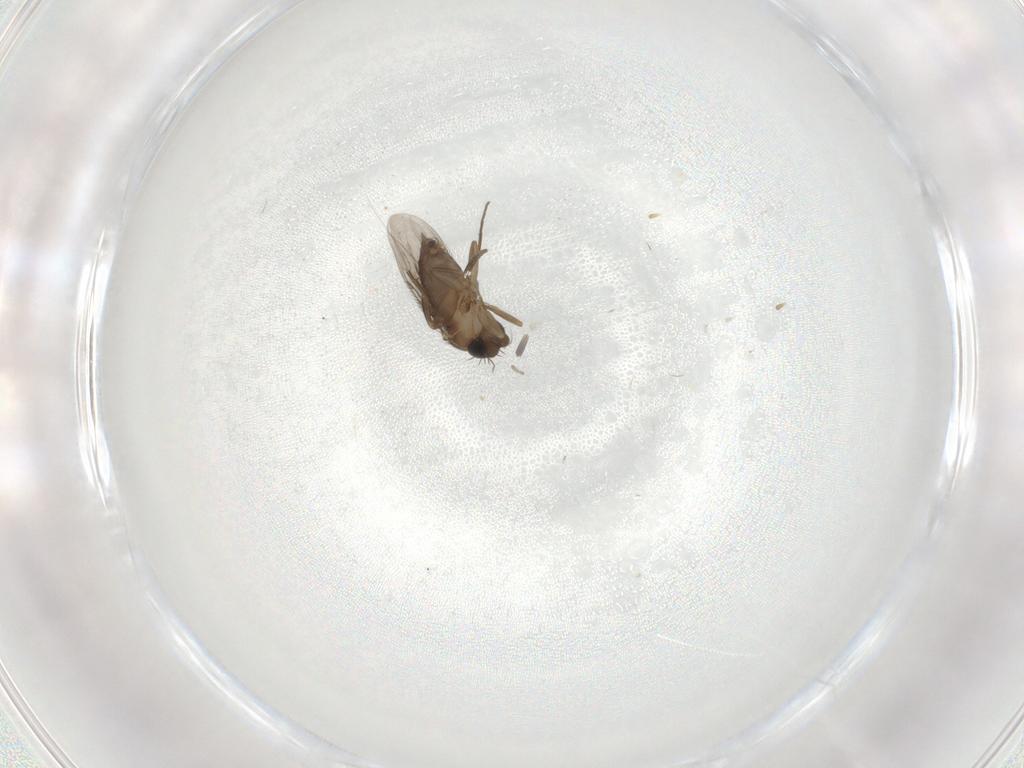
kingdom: Animalia
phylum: Arthropoda
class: Insecta
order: Diptera
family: Phoridae
